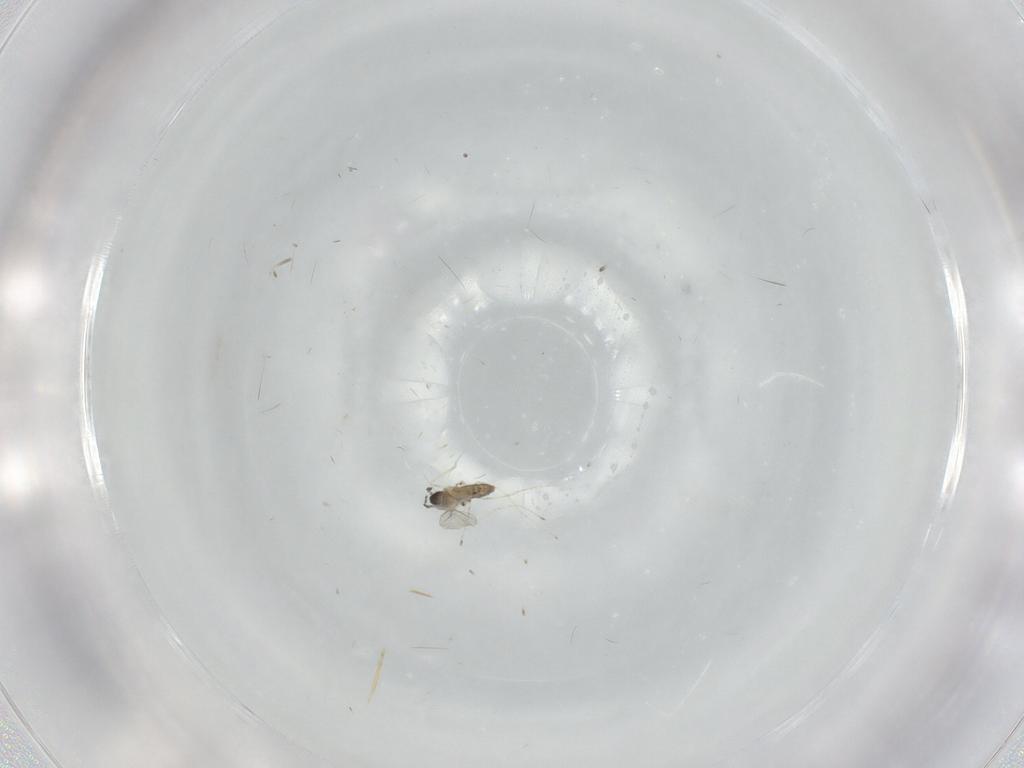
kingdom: Animalia
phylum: Arthropoda
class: Insecta
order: Diptera
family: Cecidomyiidae
